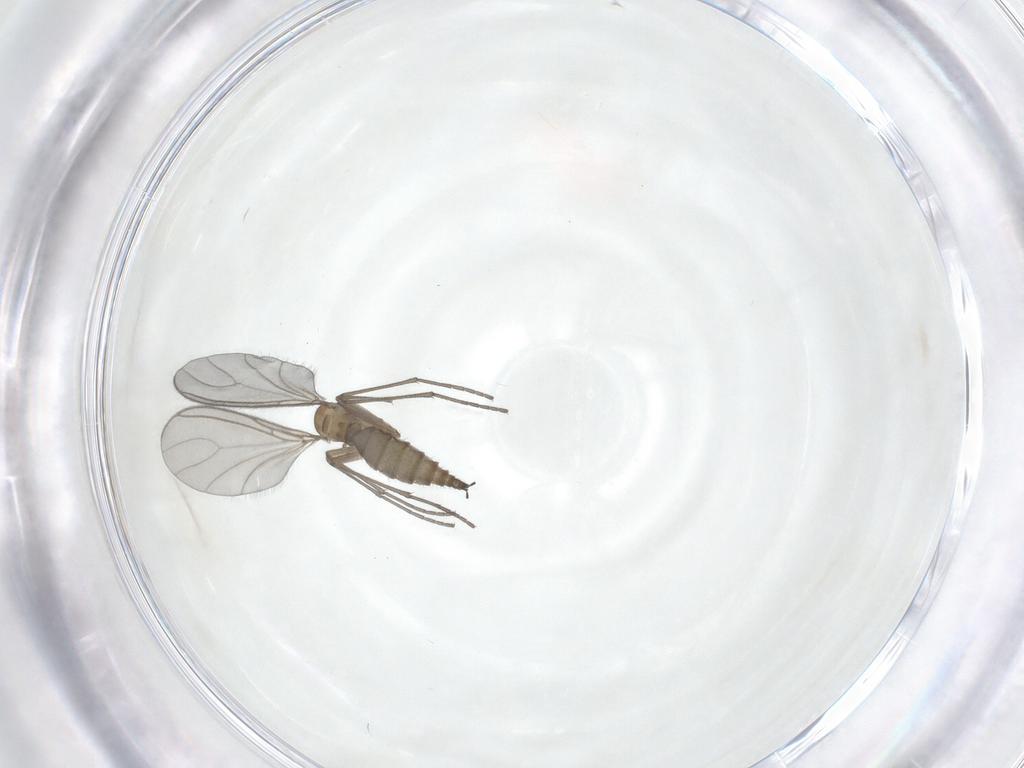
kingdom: Animalia
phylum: Arthropoda
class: Insecta
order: Diptera
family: Sciaridae
